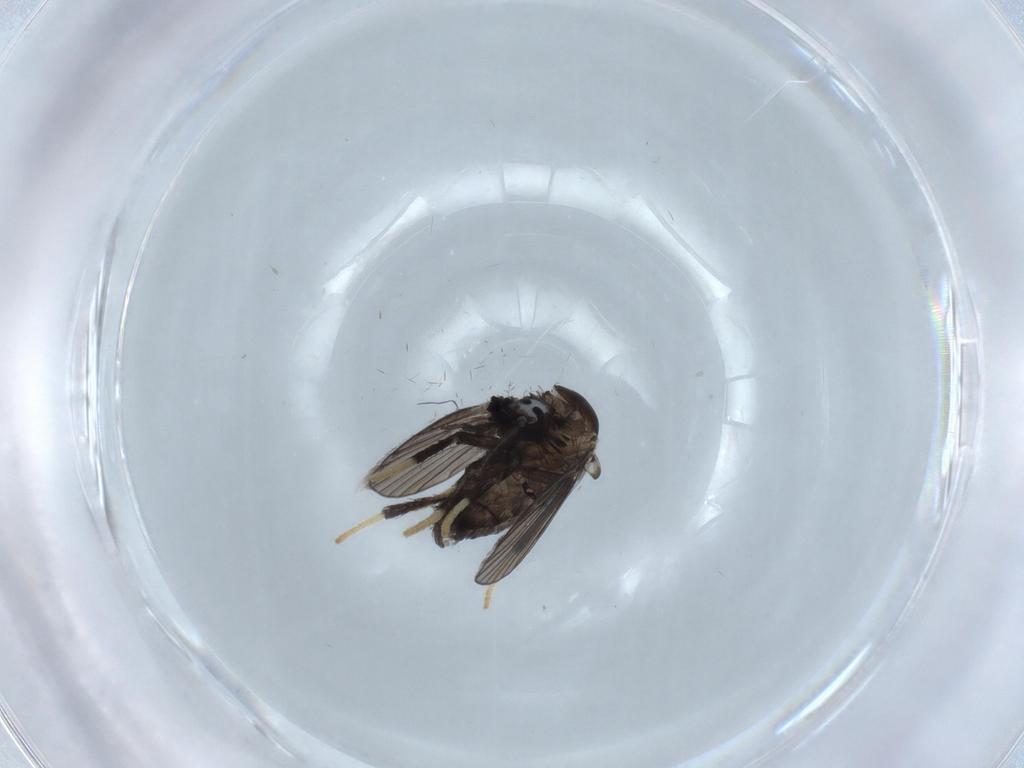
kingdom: Animalia
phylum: Arthropoda
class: Insecta
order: Diptera
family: Psychodidae
